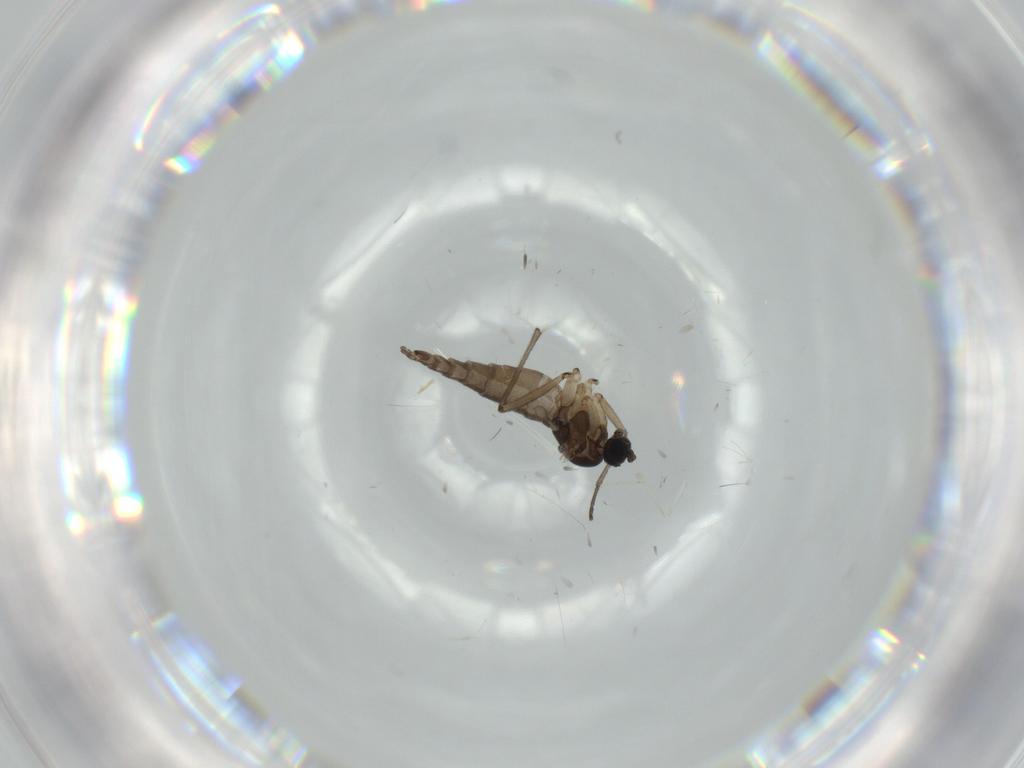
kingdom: Animalia
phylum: Arthropoda
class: Insecta
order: Diptera
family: Sciaridae
